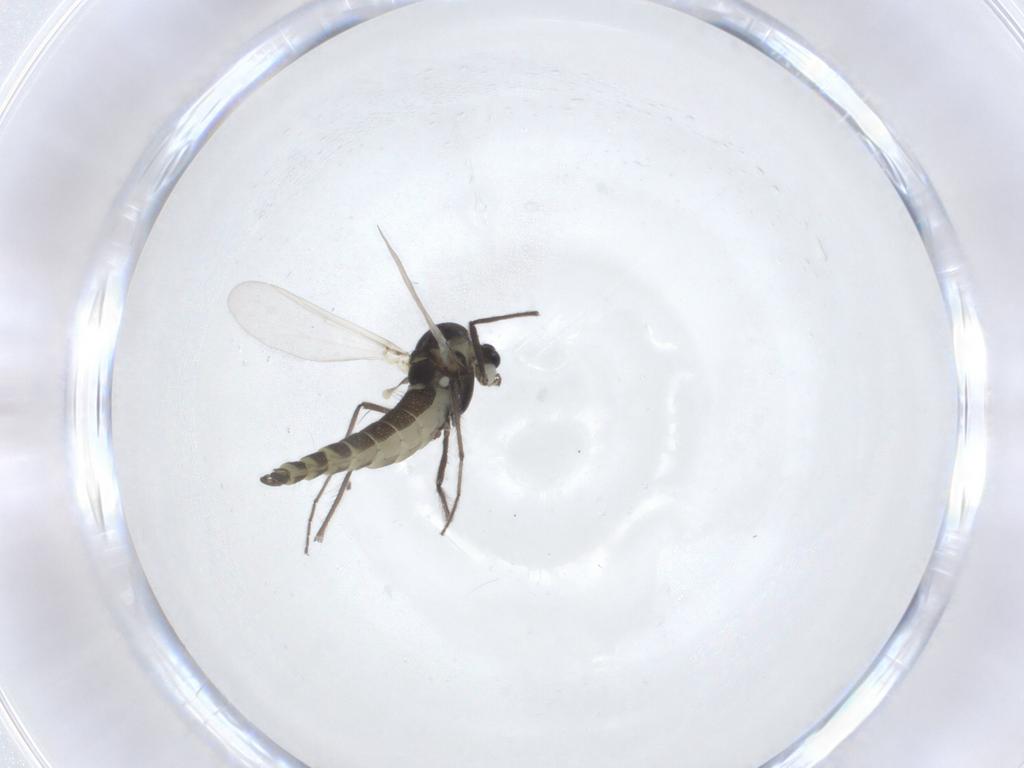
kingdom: Animalia
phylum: Arthropoda
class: Insecta
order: Diptera
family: Chironomidae
